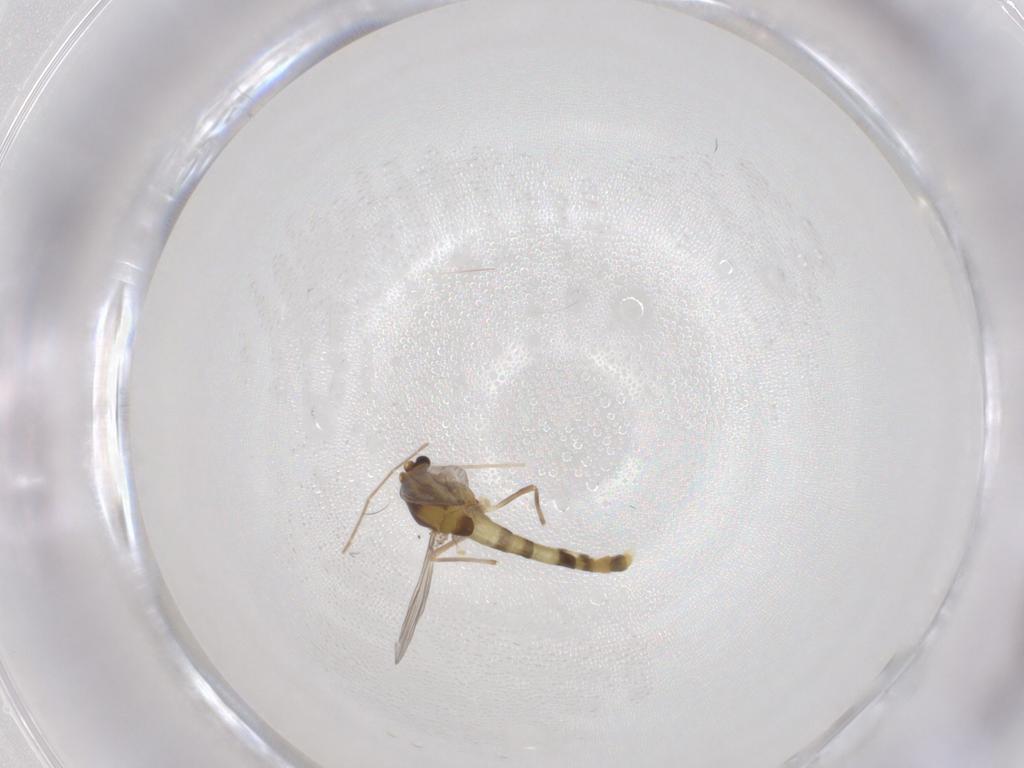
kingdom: Animalia
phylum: Arthropoda
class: Insecta
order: Diptera
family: Chironomidae
